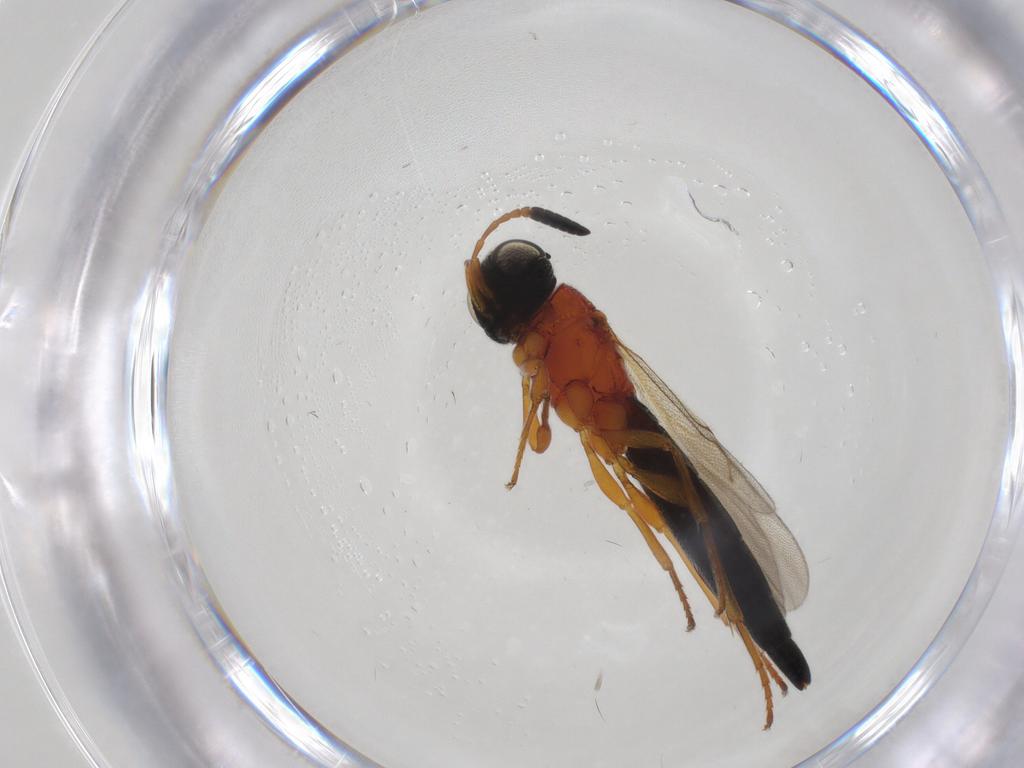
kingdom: Animalia
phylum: Arthropoda
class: Insecta
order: Hymenoptera
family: Scelionidae
